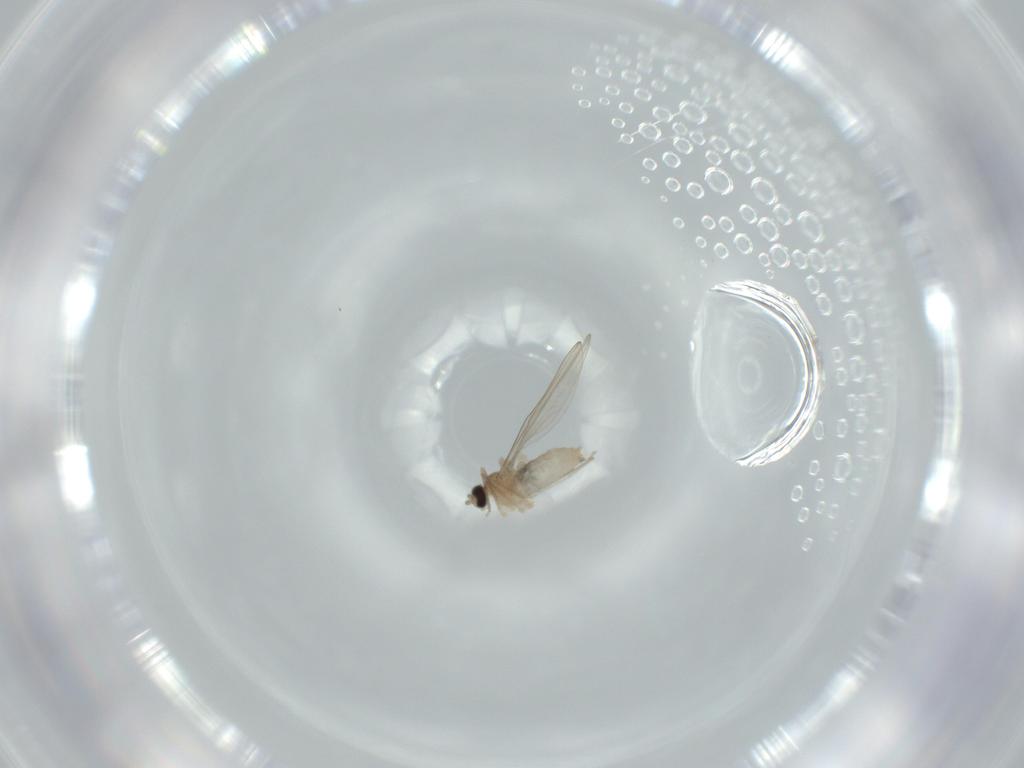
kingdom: Animalia
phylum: Arthropoda
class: Insecta
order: Diptera
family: Cecidomyiidae
